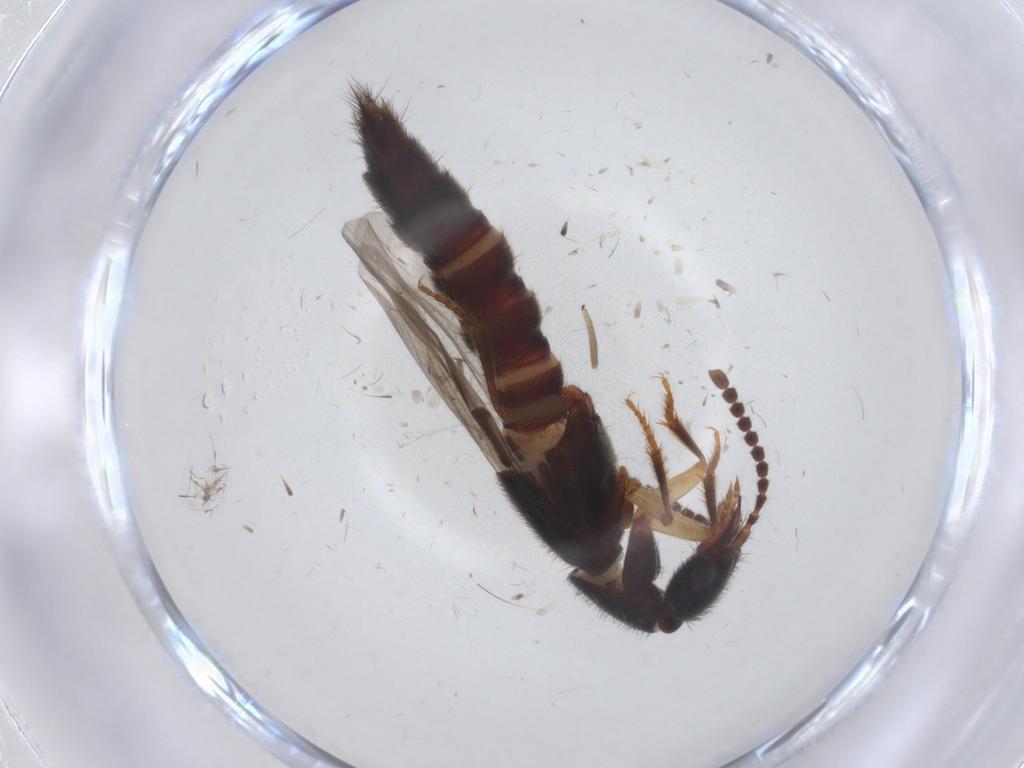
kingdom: Animalia
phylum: Arthropoda
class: Insecta
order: Coleoptera
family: Staphylinidae
